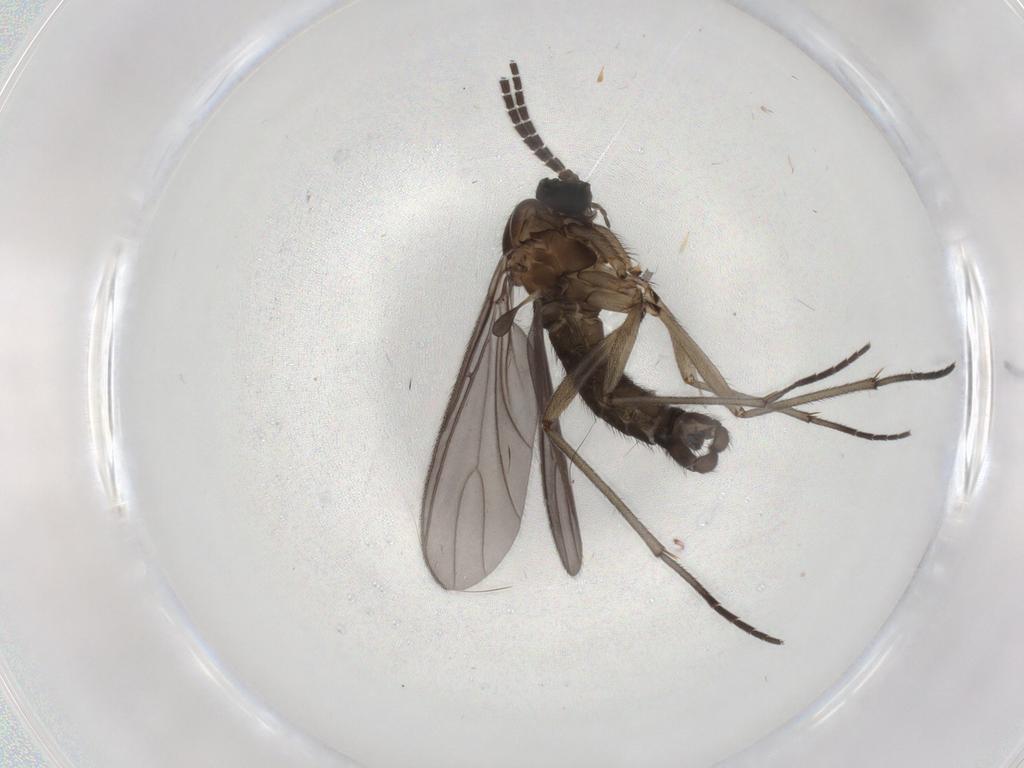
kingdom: Animalia
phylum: Arthropoda
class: Insecta
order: Diptera
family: Sciaridae
